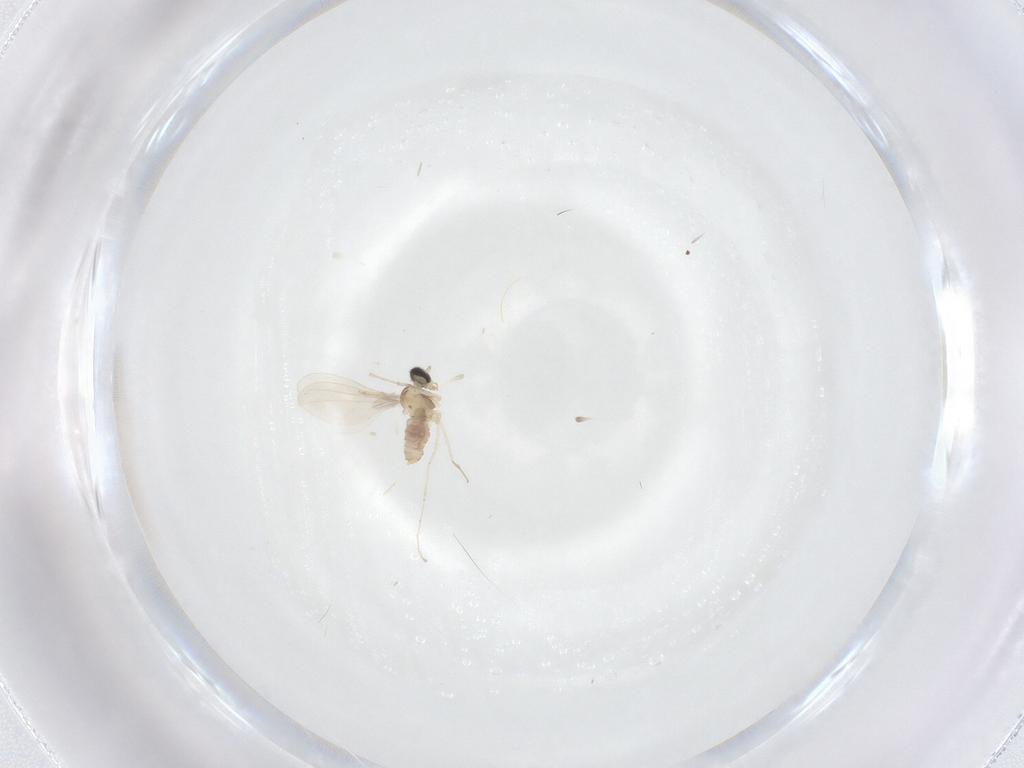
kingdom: Animalia
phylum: Arthropoda
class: Insecta
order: Diptera
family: Cecidomyiidae
